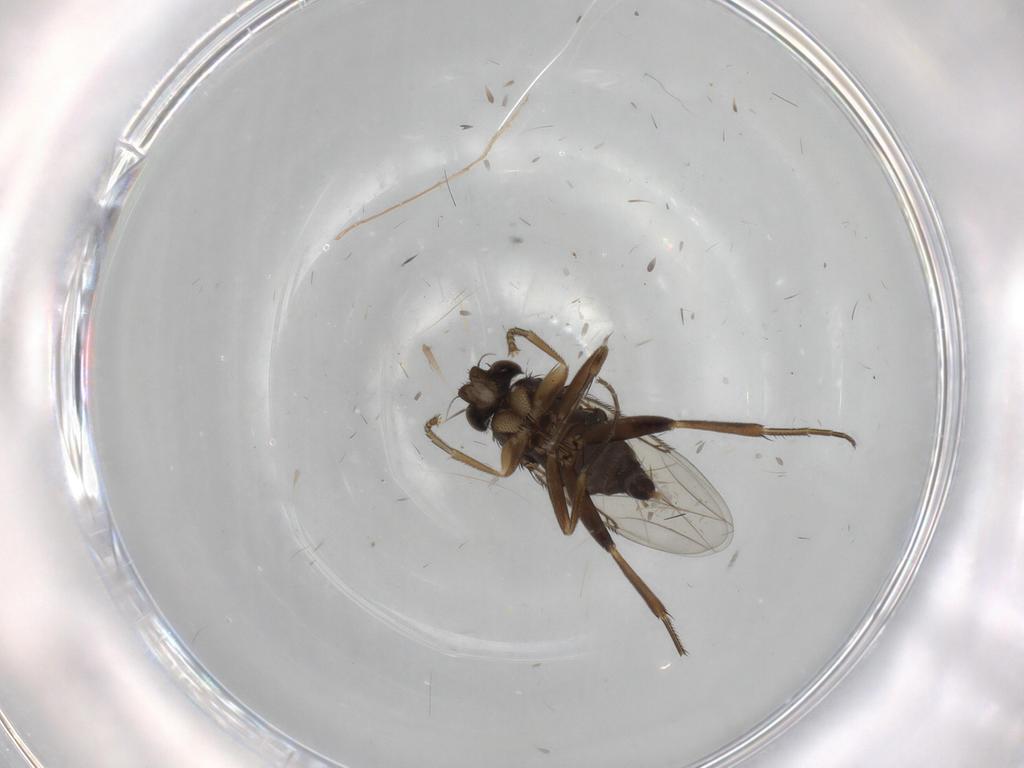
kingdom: Animalia
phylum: Arthropoda
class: Insecta
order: Diptera
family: Phoridae
